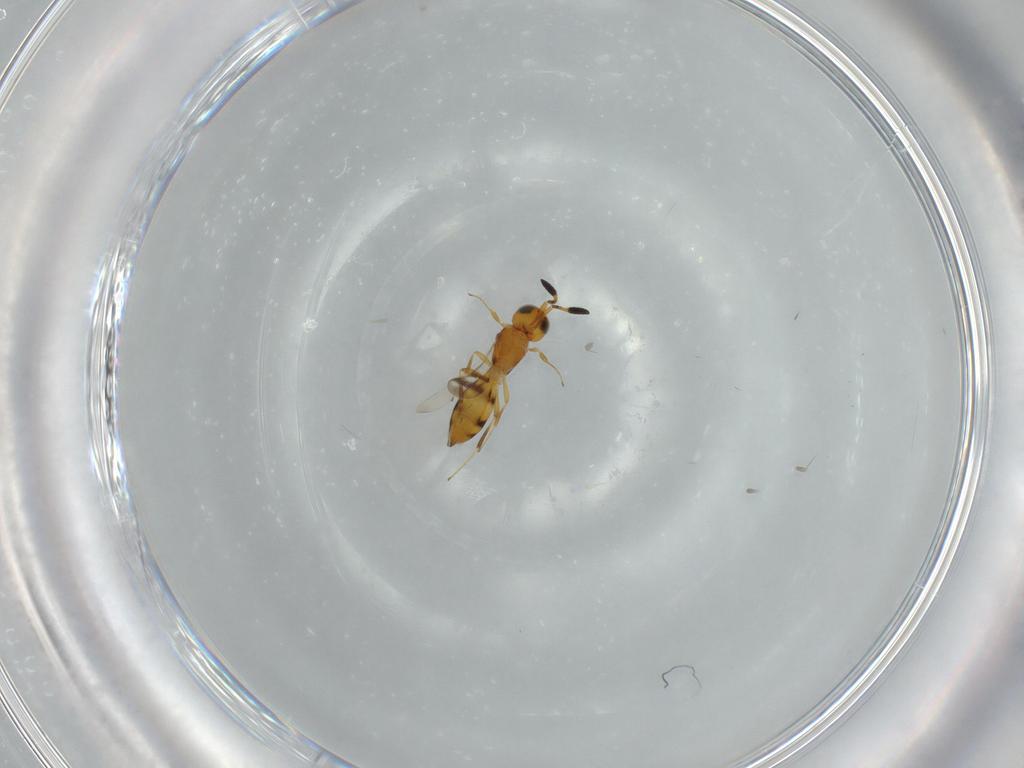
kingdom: Animalia
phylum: Arthropoda
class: Insecta
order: Hymenoptera
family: Scelionidae
